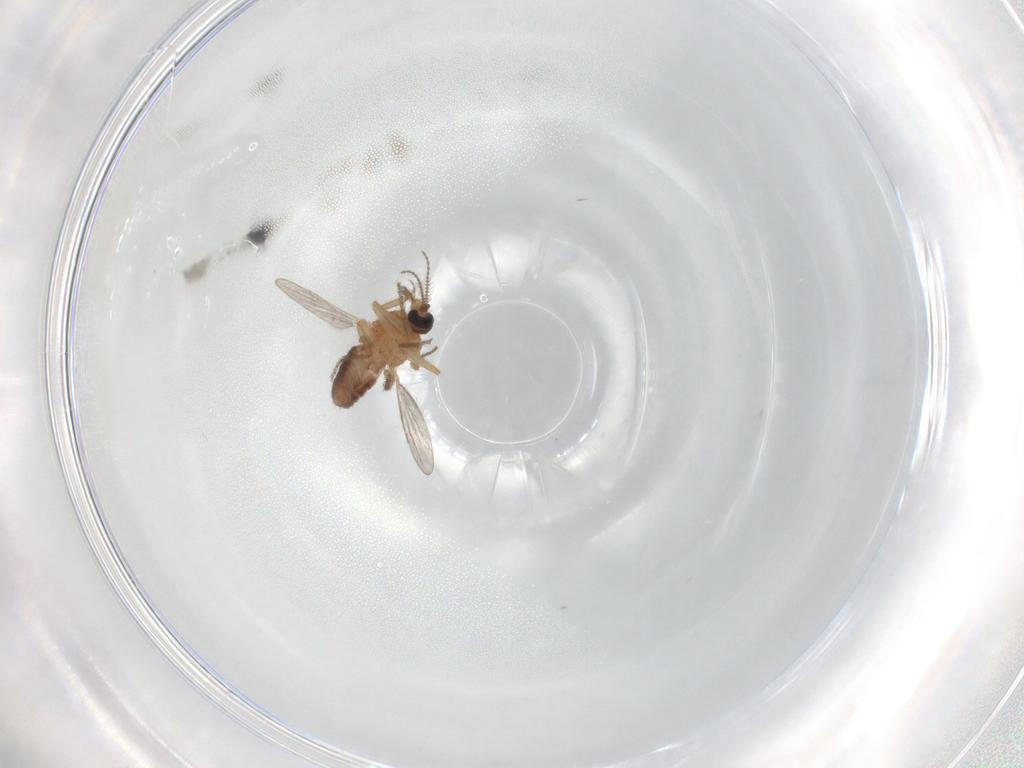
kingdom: Animalia
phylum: Arthropoda
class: Insecta
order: Diptera
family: Ceratopogonidae
